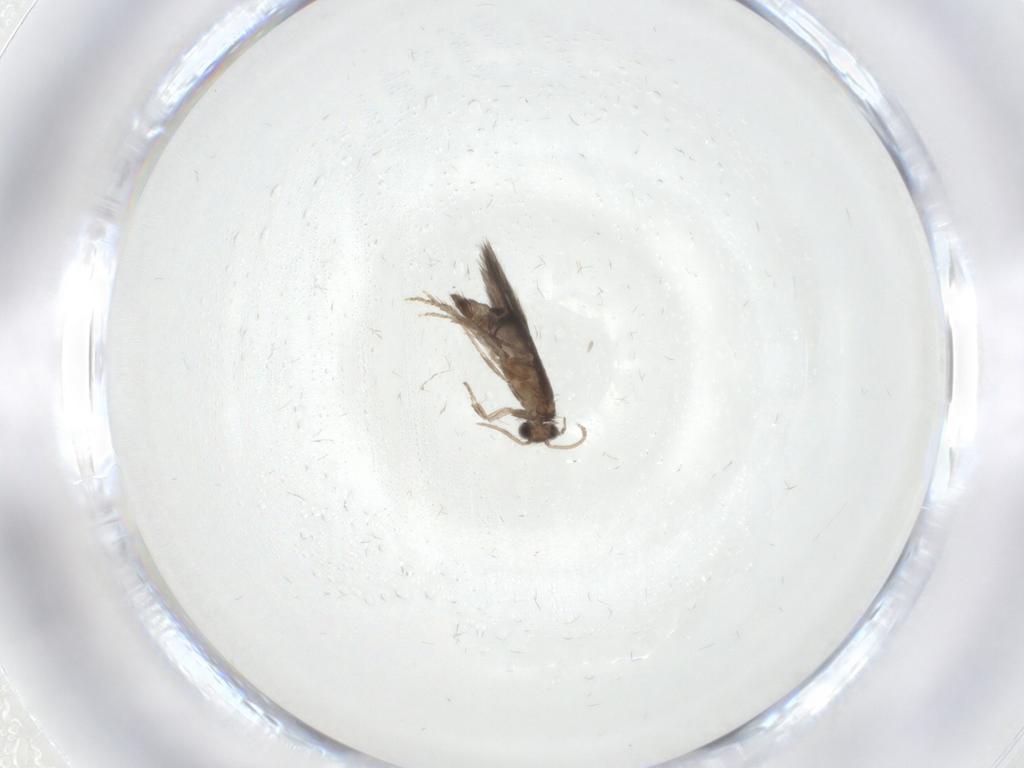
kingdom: Animalia
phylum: Arthropoda
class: Insecta
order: Trichoptera
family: Hydroptilidae
